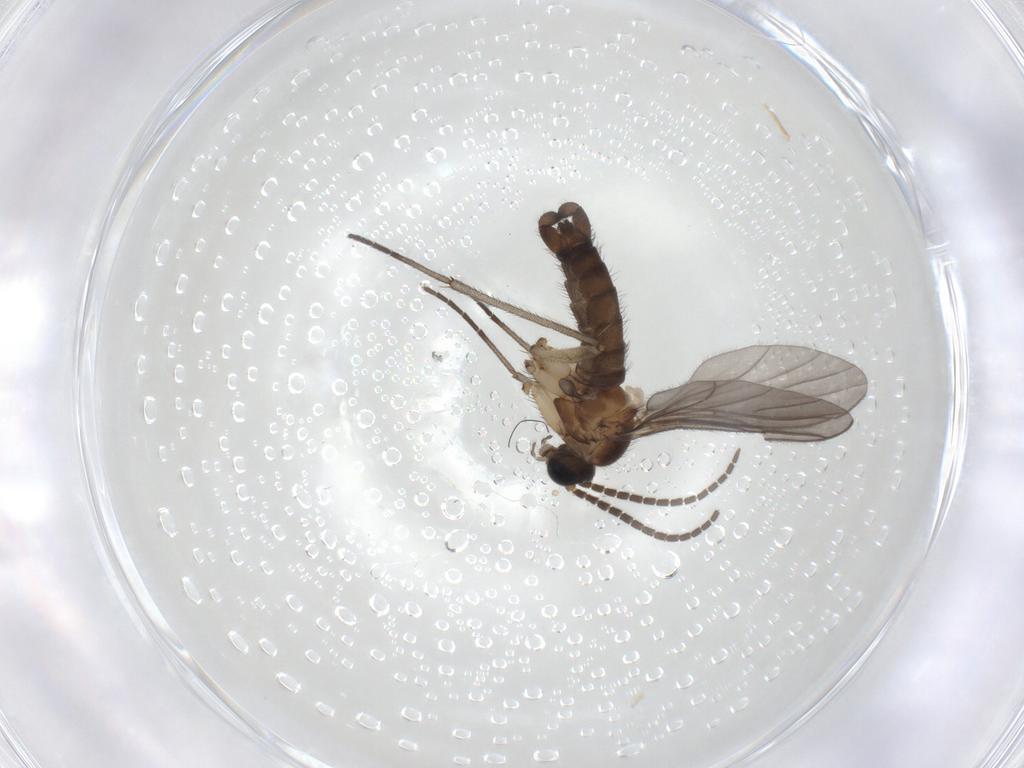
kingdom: Animalia
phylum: Arthropoda
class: Insecta
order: Diptera
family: Sciaridae
